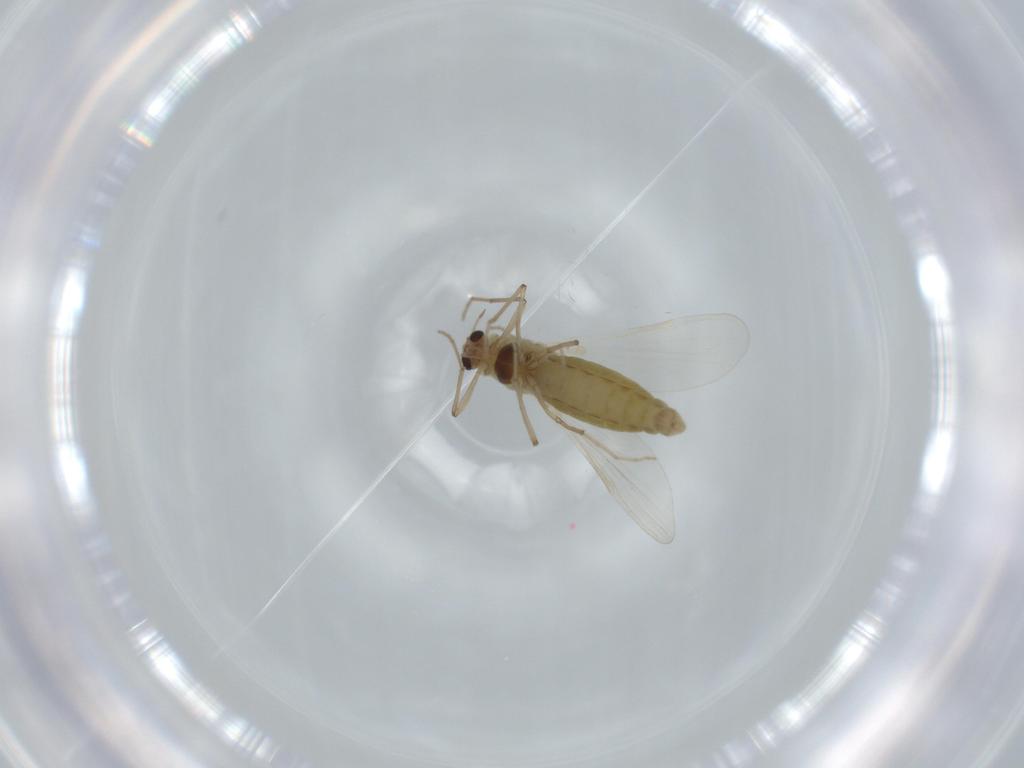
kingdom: Animalia
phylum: Arthropoda
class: Insecta
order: Diptera
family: Chironomidae
